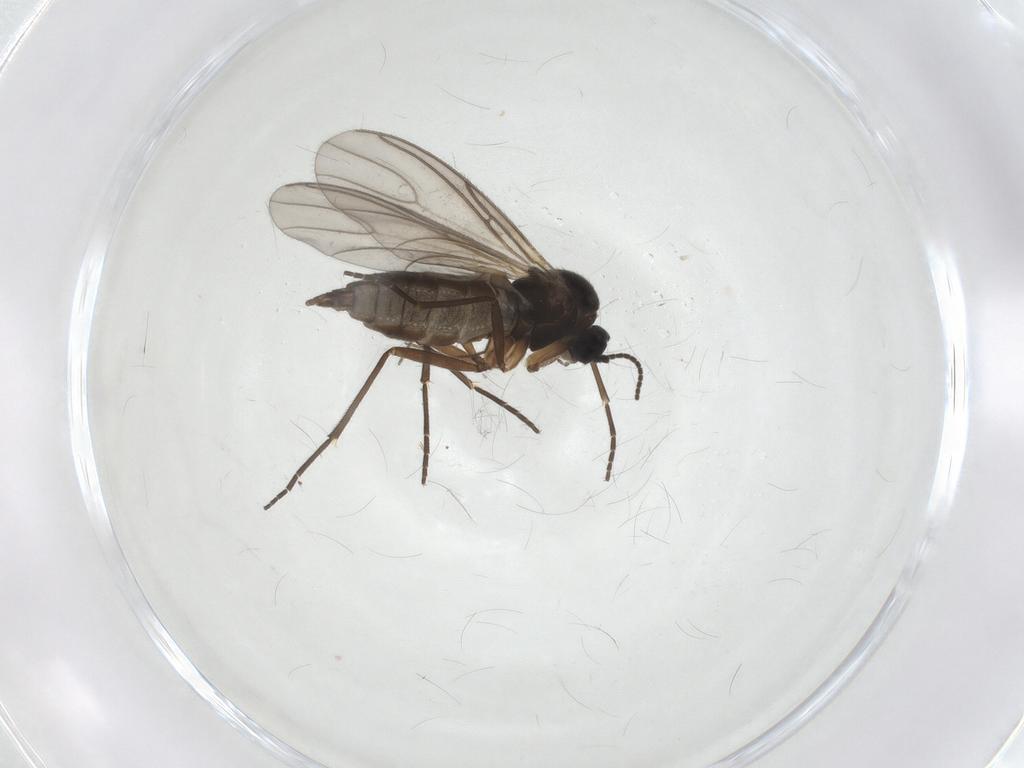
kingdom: Animalia
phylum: Arthropoda
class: Insecta
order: Diptera
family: Sciaridae
